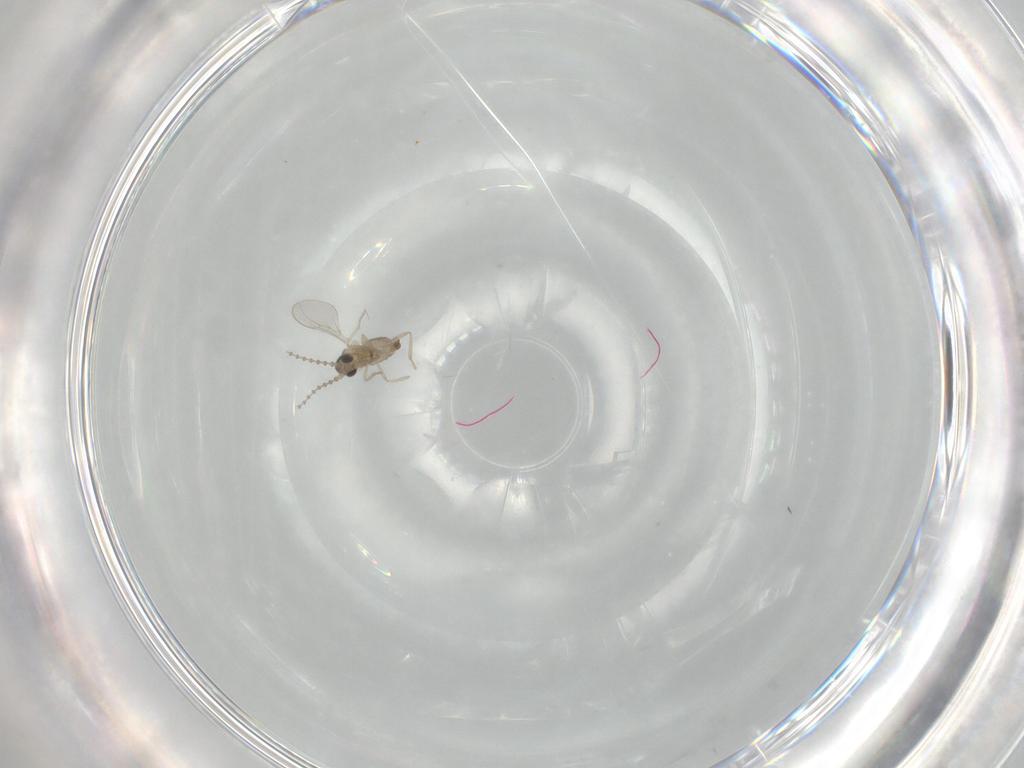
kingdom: Animalia
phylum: Arthropoda
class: Insecta
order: Diptera
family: Cecidomyiidae
